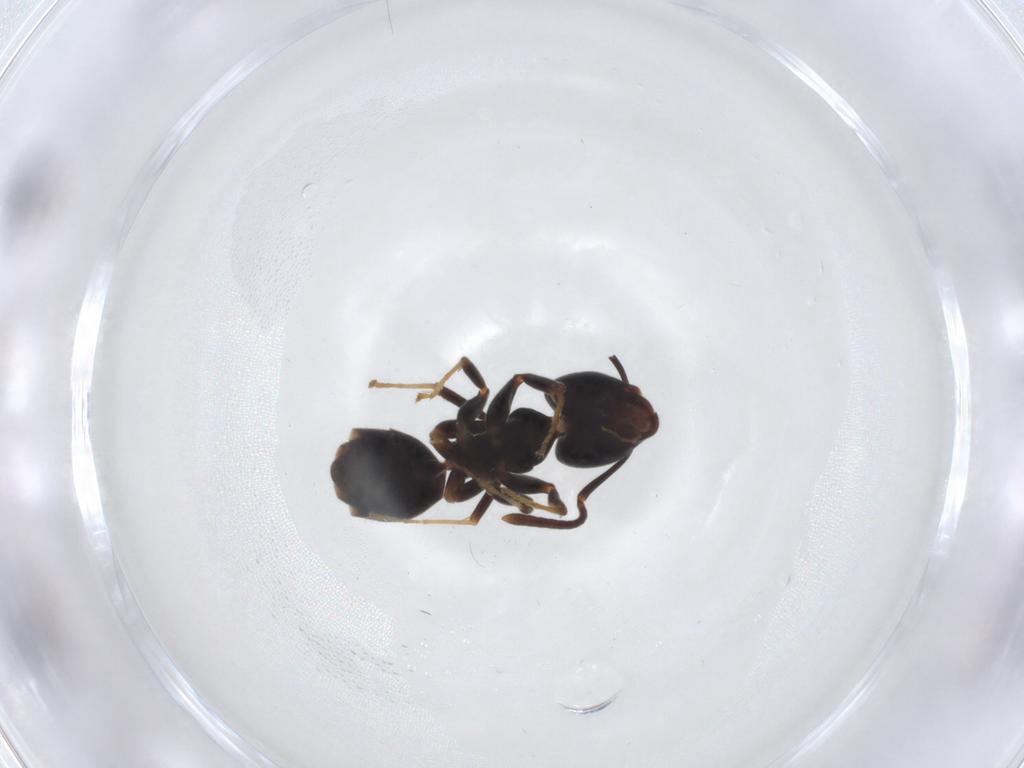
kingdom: Animalia
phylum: Arthropoda
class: Insecta
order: Hymenoptera
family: Formicidae
